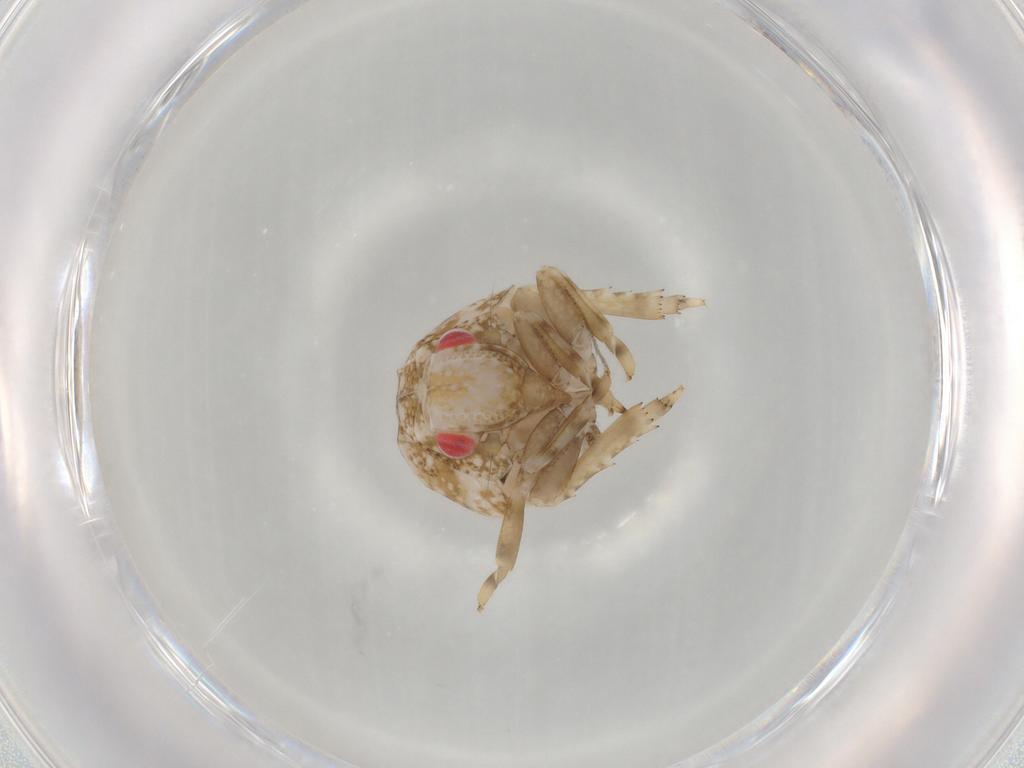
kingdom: Animalia
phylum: Arthropoda
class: Insecta
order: Hemiptera
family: Acanaloniidae
